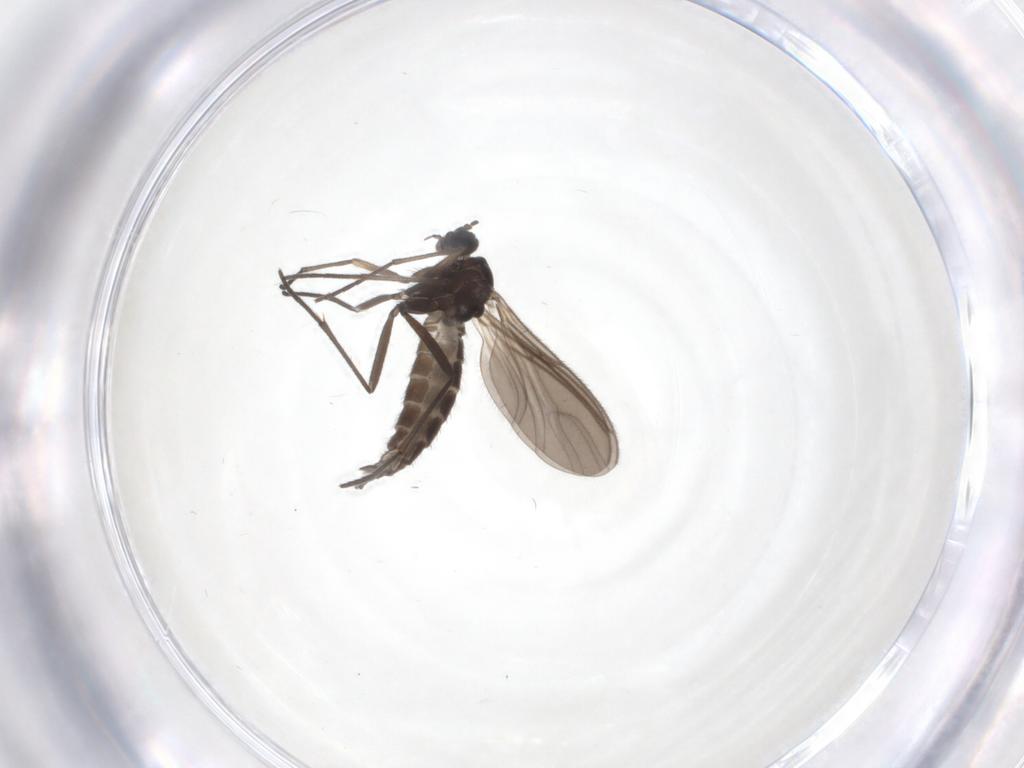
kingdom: Animalia
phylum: Arthropoda
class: Insecta
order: Diptera
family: Sciaridae
